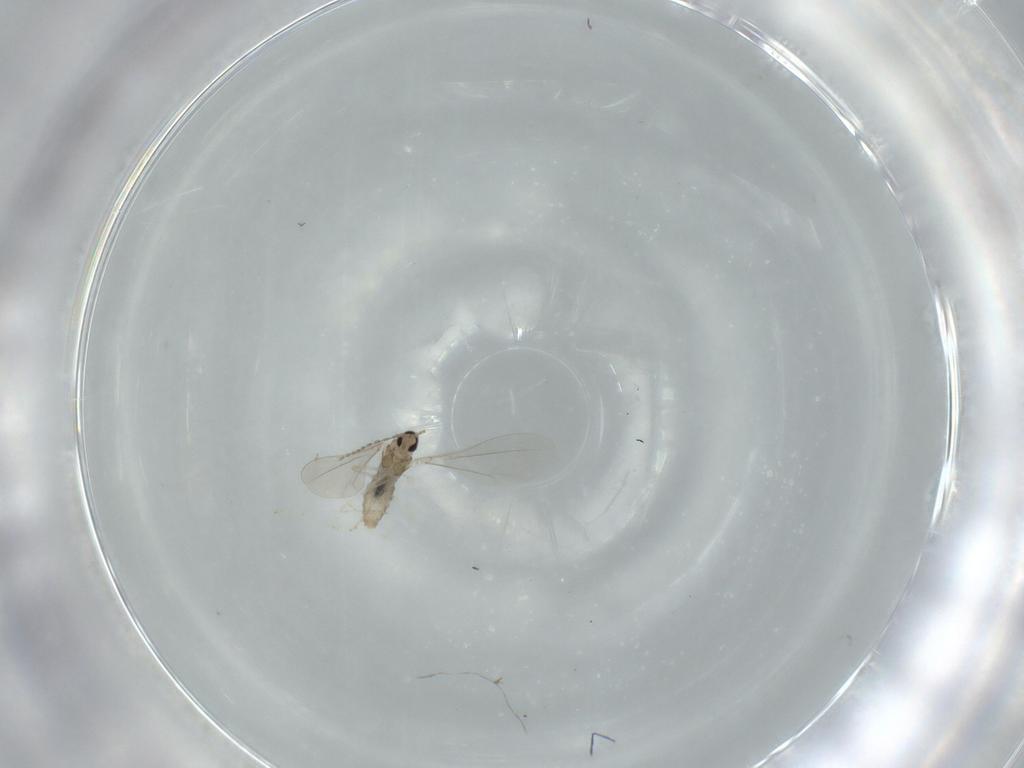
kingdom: Animalia
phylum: Arthropoda
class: Insecta
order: Diptera
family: Cecidomyiidae
